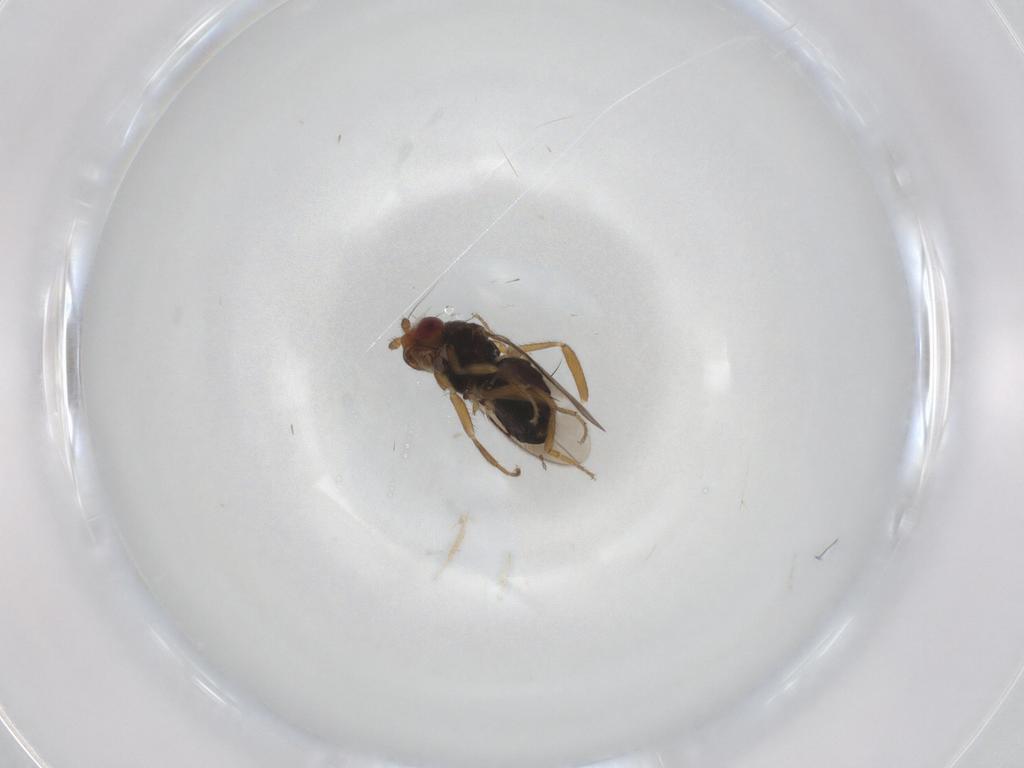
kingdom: Animalia
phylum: Arthropoda
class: Insecta
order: Diptera
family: Sphaeroceridae
